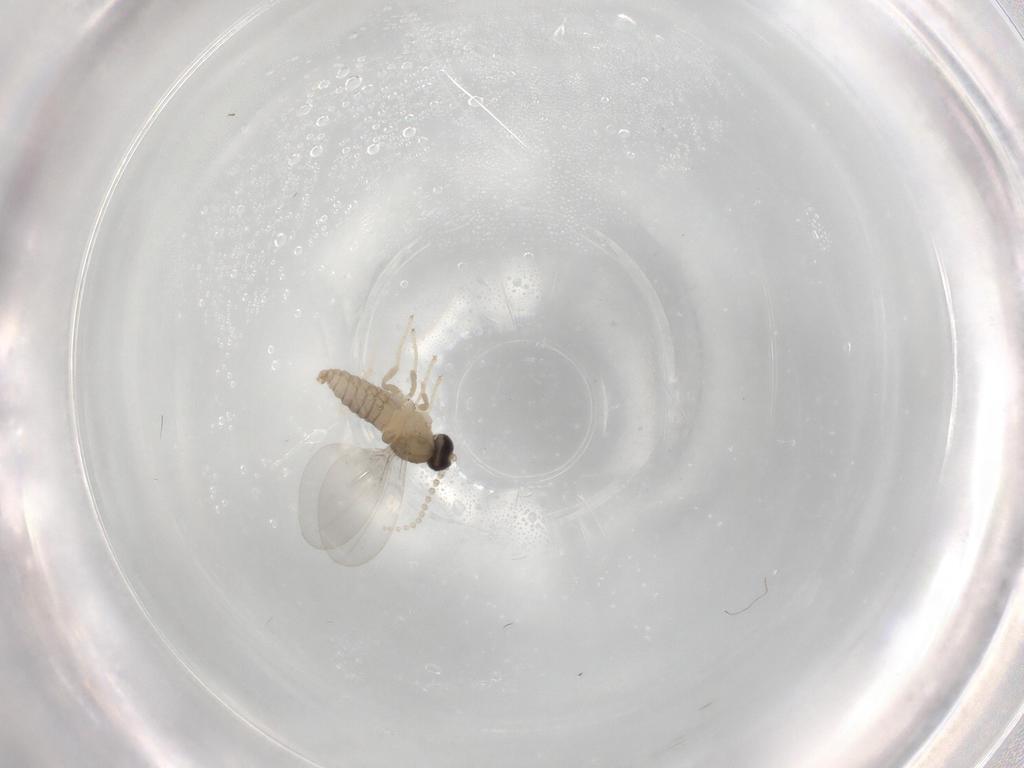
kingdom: Animalia
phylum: Arthropoda
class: Insecta
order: Diptera
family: Cecidomyiidae
